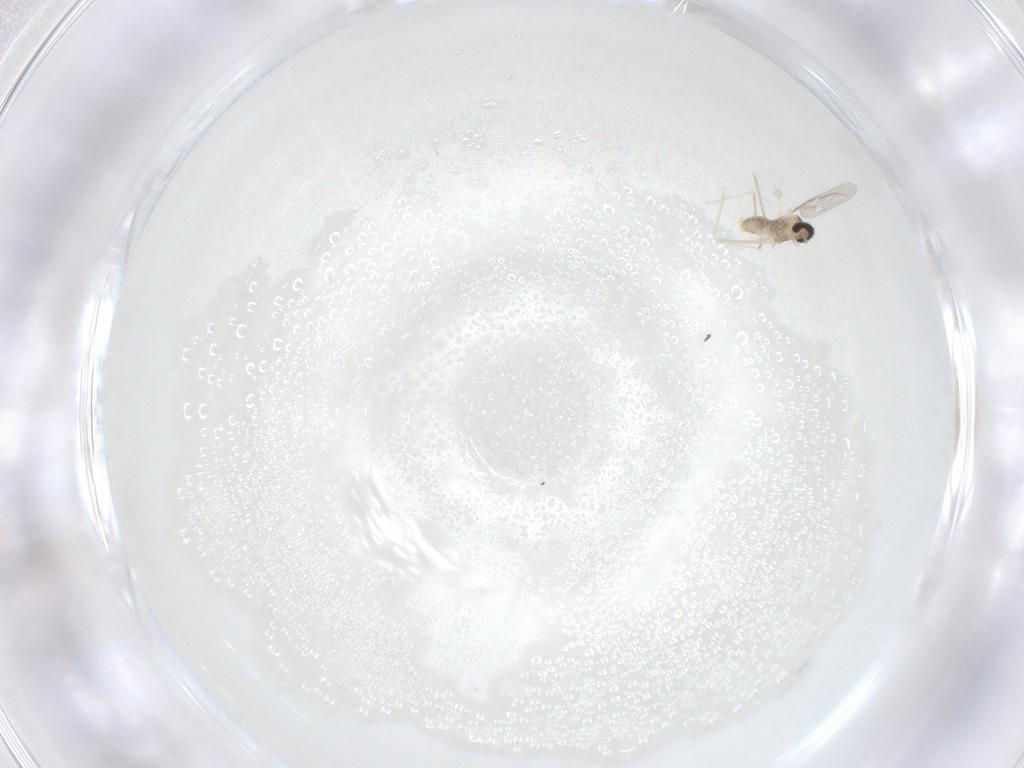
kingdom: Animalia
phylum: Arthropoda
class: Insecta
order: Diptera
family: Cecidomyiidae
